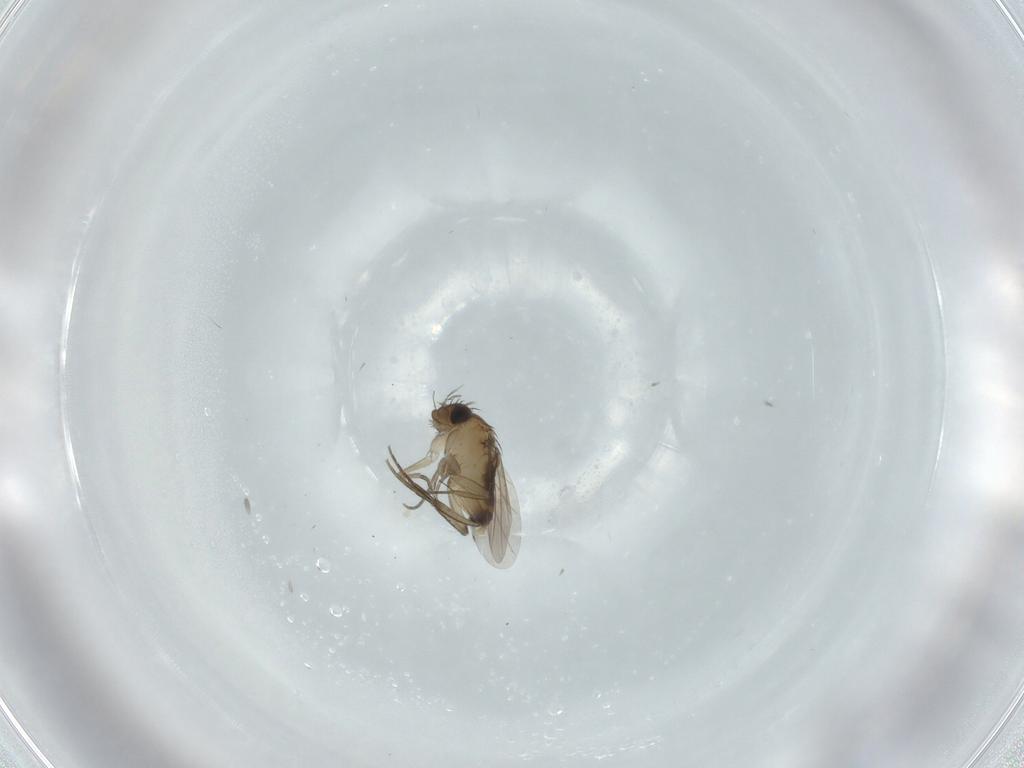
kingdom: Animalia
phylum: Arthropoda
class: Insecta
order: Diptera
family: Phoridae
